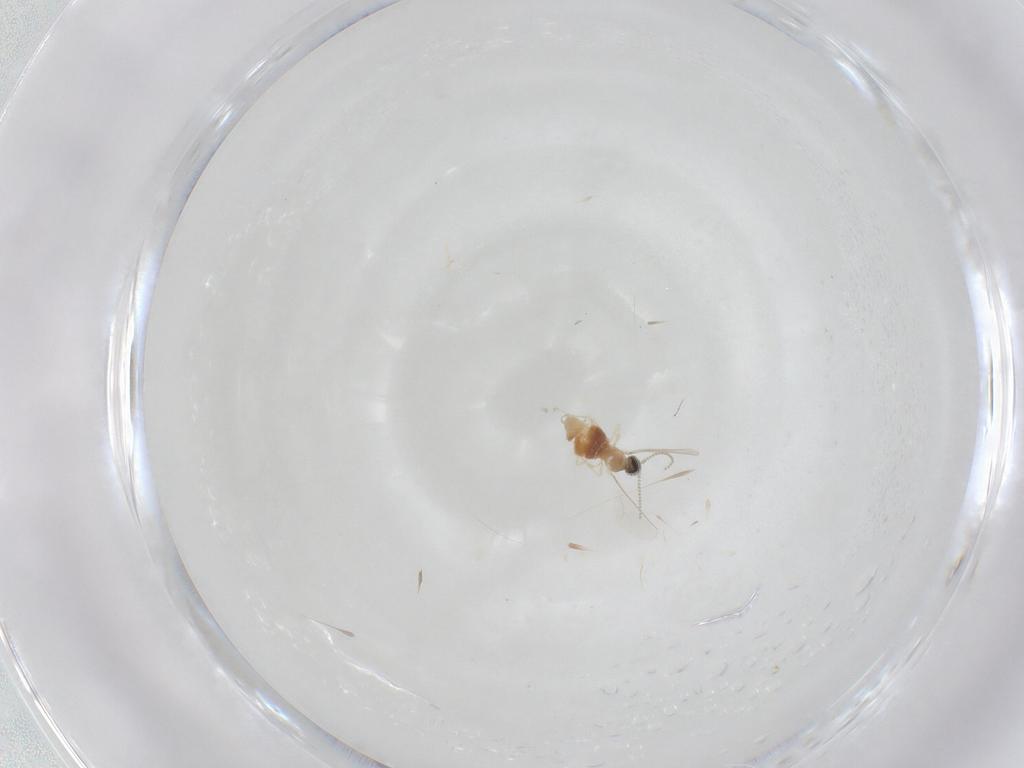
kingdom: Animalia
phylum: Arthropoda
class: Insecta
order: Diptera
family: Cecidomyiidae
